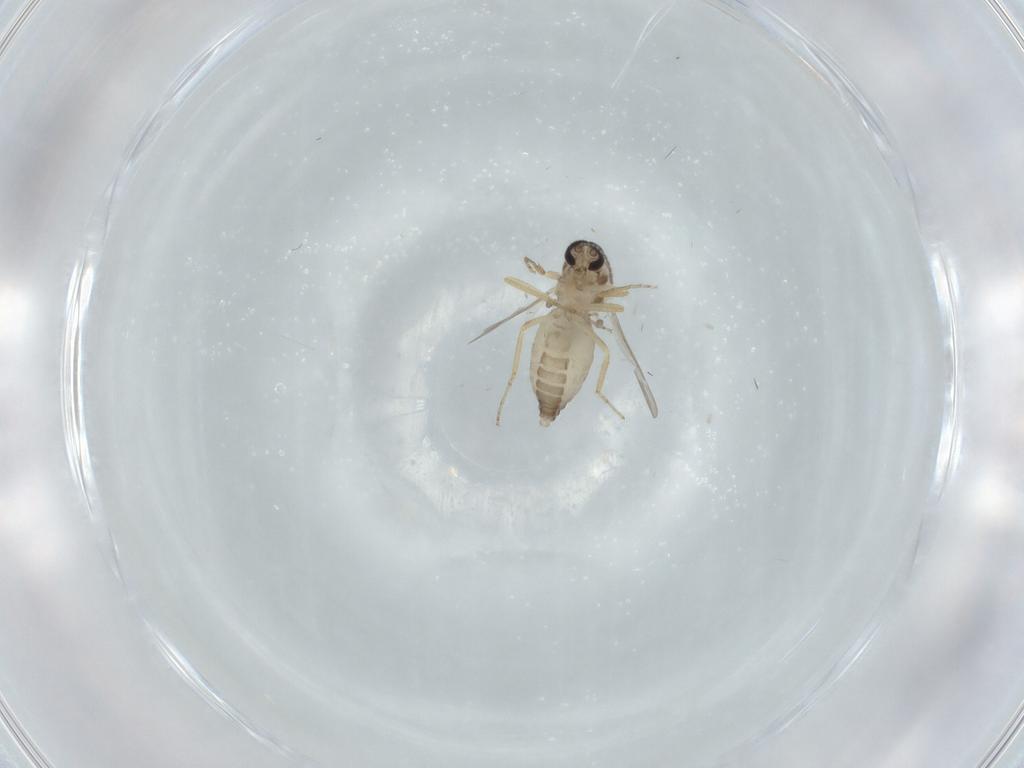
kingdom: Animalia
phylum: Arthropoda
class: Insecta
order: Diptera
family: Ceratopogonidae
